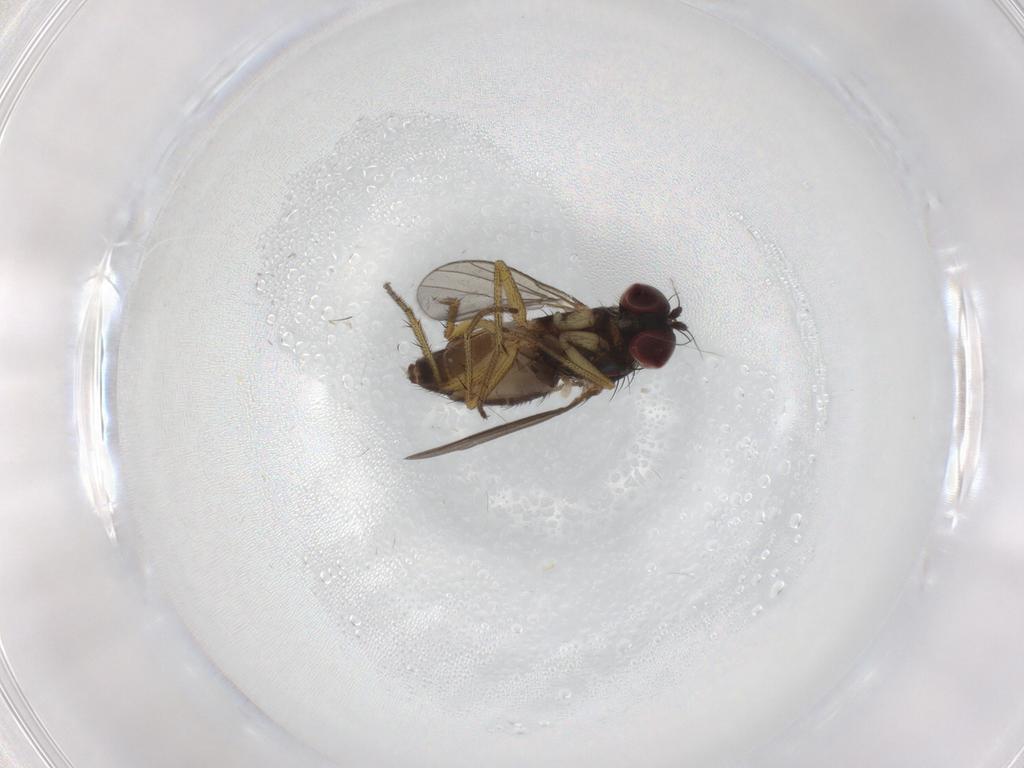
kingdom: Animalia
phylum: Arthropoda
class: Insecta
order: Diptera
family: Dolichopodidae
